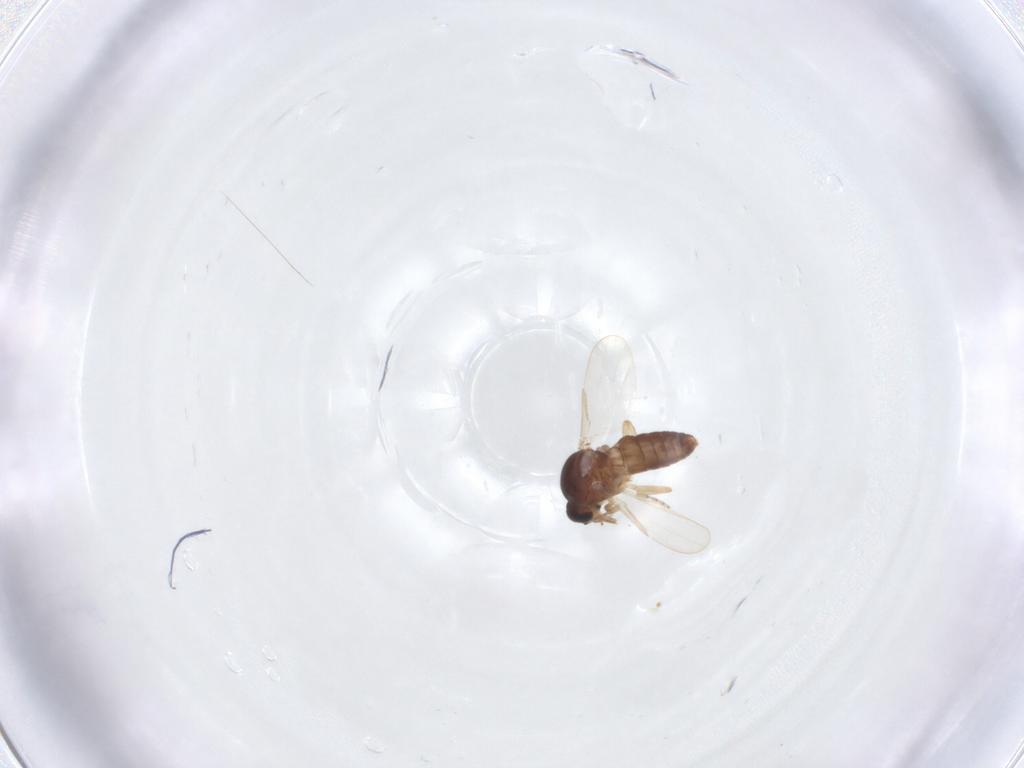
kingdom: Animalia
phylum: Arthropoda
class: Insecta
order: Diptera
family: Ceratopogonidae
